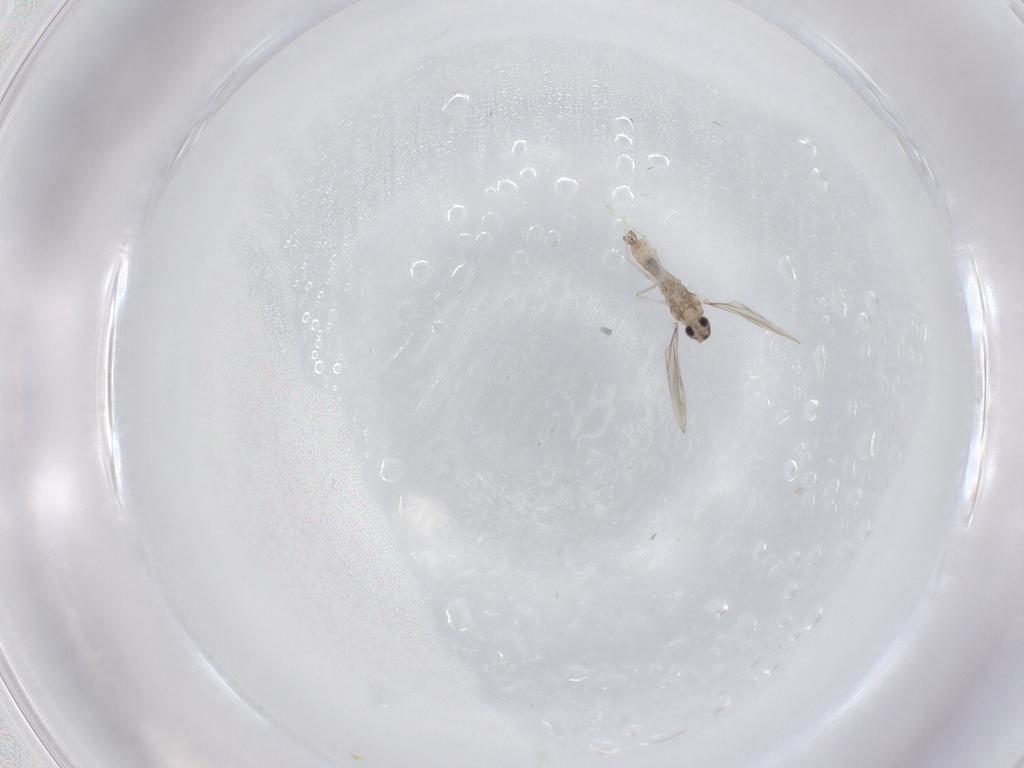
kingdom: Animalia
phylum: Arthropoda
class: Insecta
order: Diptera
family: Cecidomyiidae
